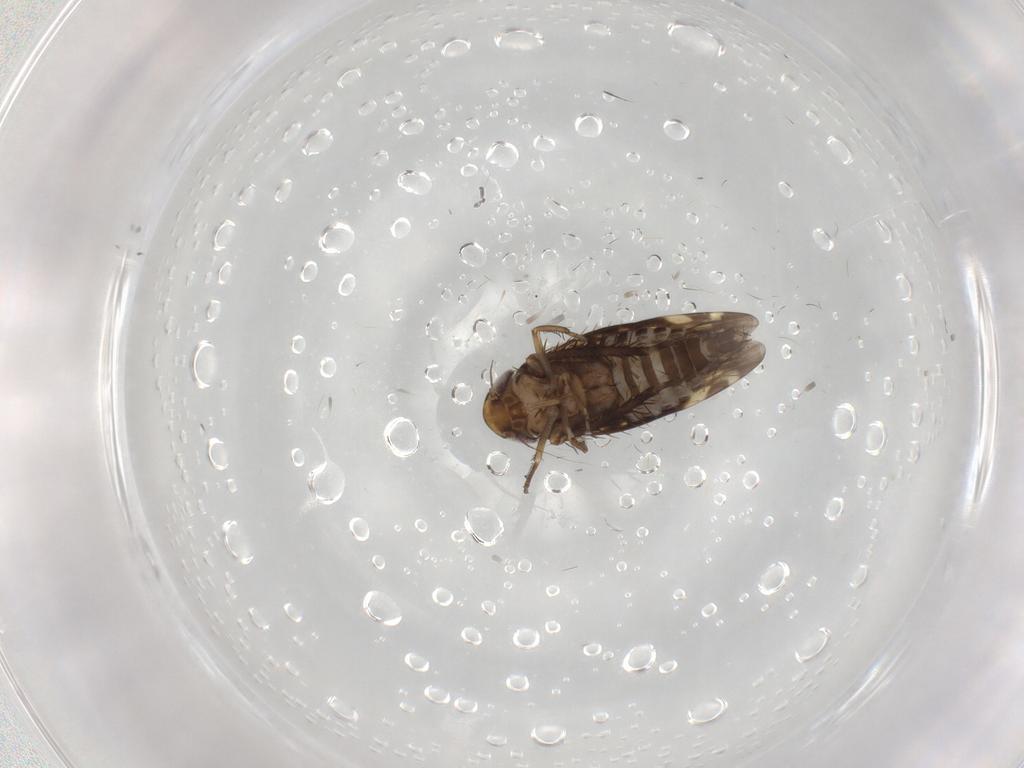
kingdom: Animalia
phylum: Arthropoda
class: Insecta
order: Hemiptera
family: Cicadellidae
